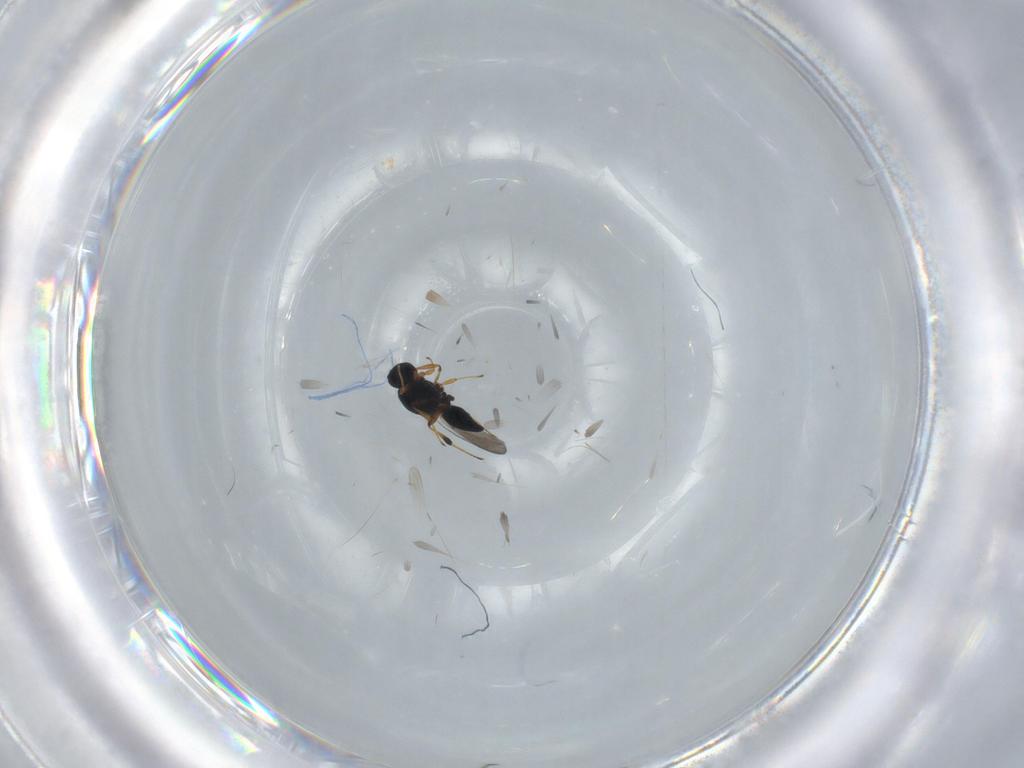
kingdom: Animalia
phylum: Arthropoda
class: Insecta
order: Hymenoptera
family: Platygastridae
